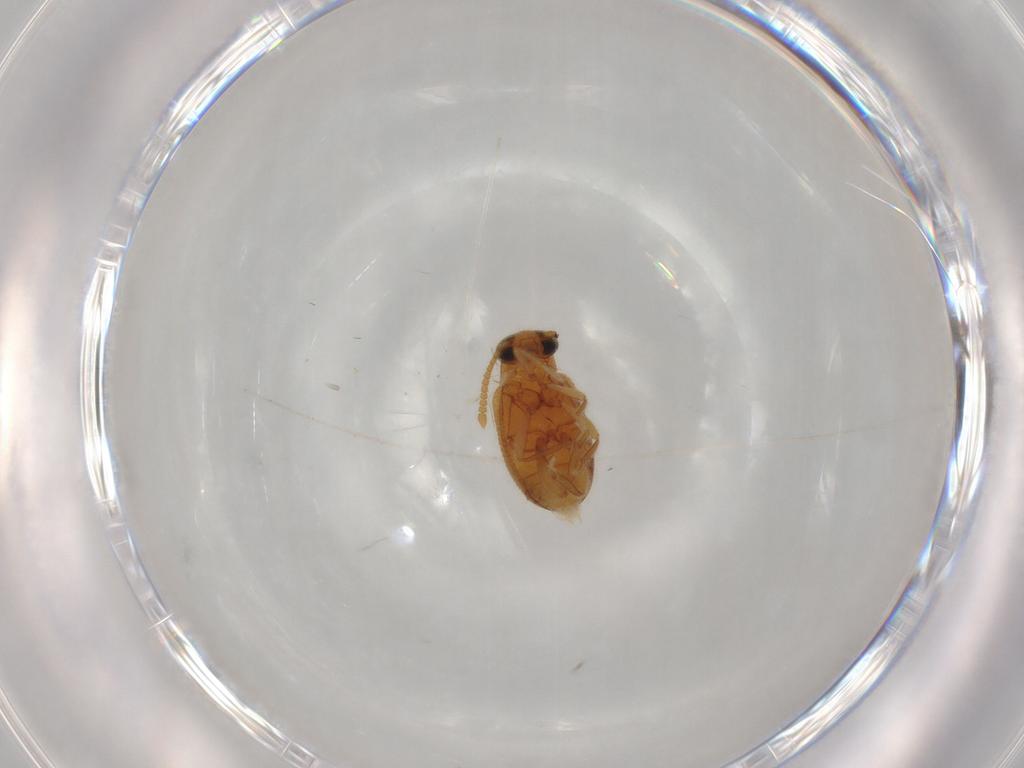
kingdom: Animalia
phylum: Arthropoda
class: Insecta
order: Coleoptera
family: Aderidae
